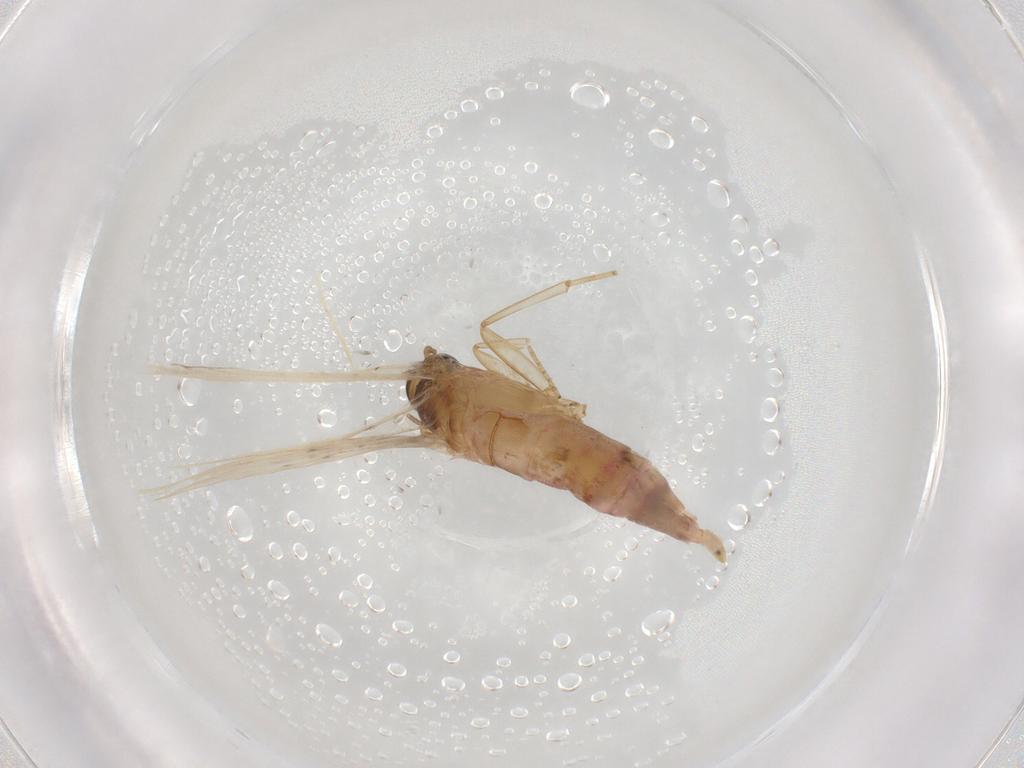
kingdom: Animalia
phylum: Arthropoda
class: Insecta
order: Lepidoptera
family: Gelechiidae
